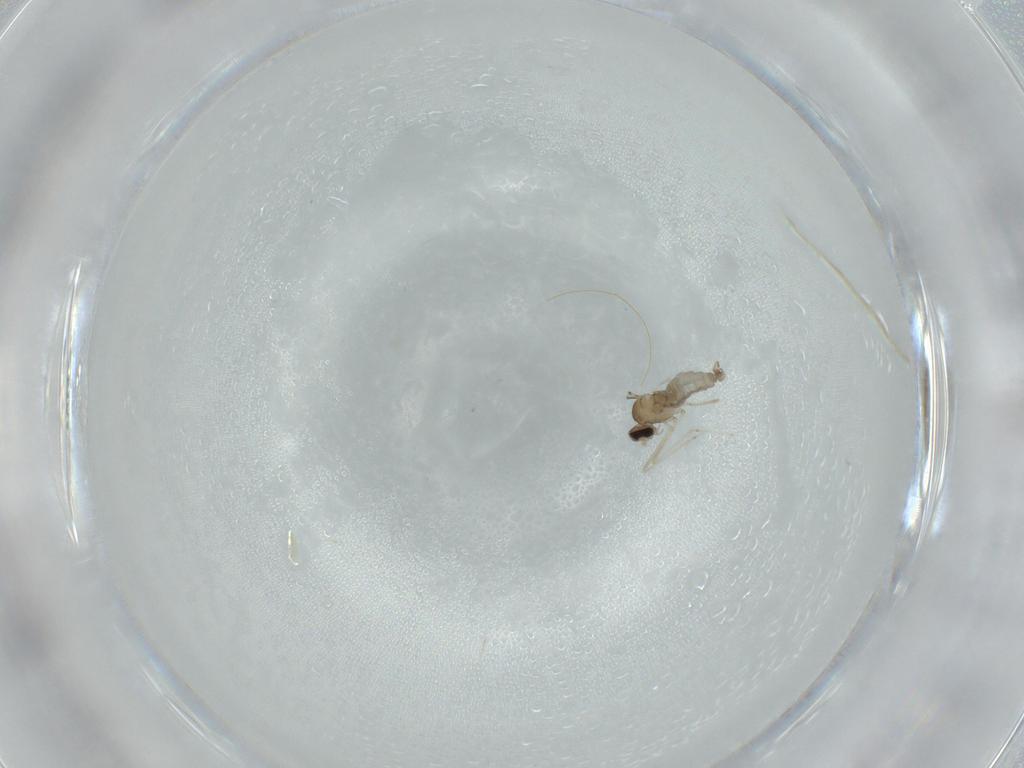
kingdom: Animalia
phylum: Arthropoda
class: Insecta
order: Diptera
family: Cecidomyiidae
